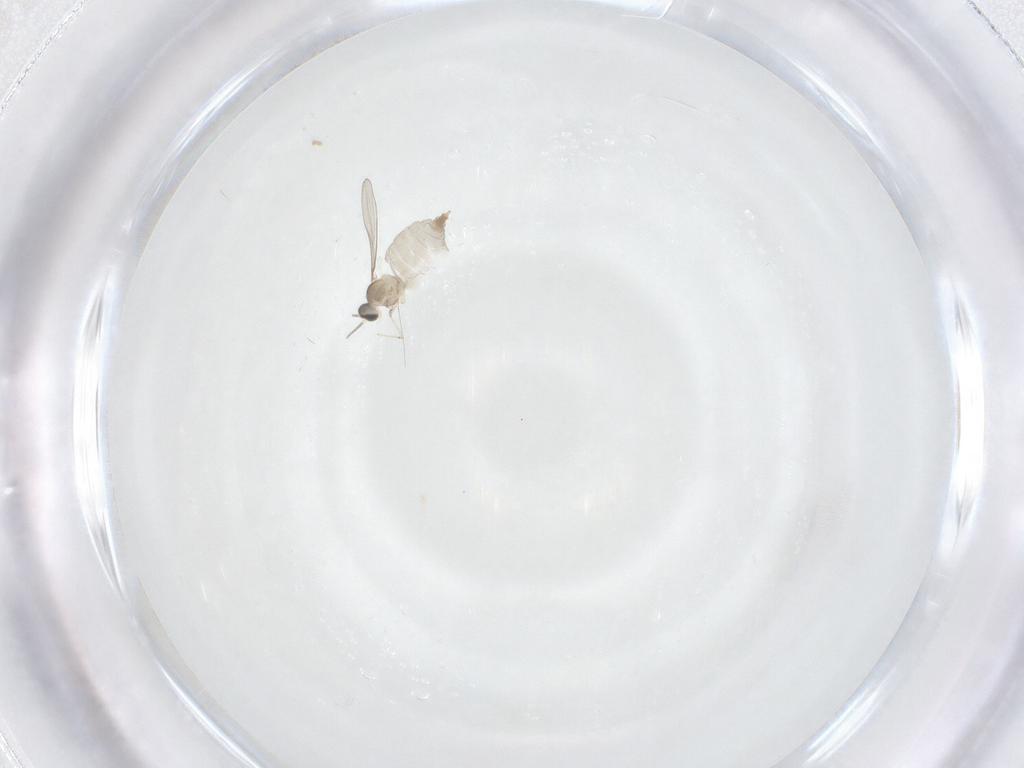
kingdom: Animalia
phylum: Arthropoda
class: Insecta
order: Diptera
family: Cecidomyiidae
